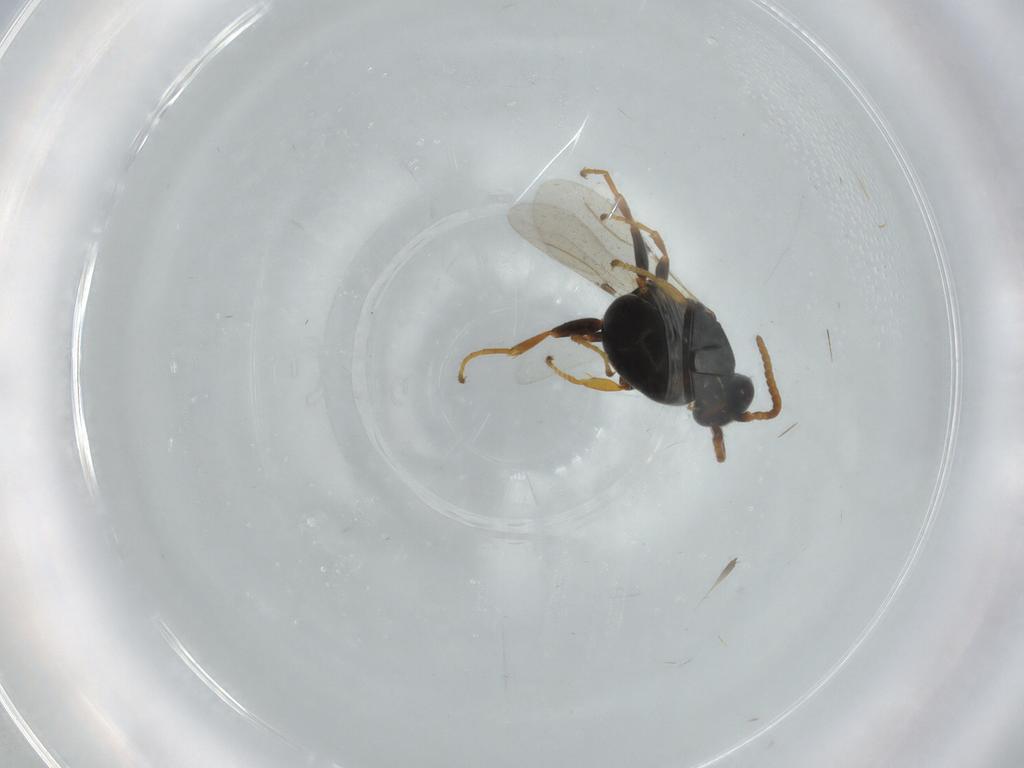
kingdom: Animalia
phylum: Arthropoda
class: Insecta
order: Hymenoptera
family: Bethylidae
